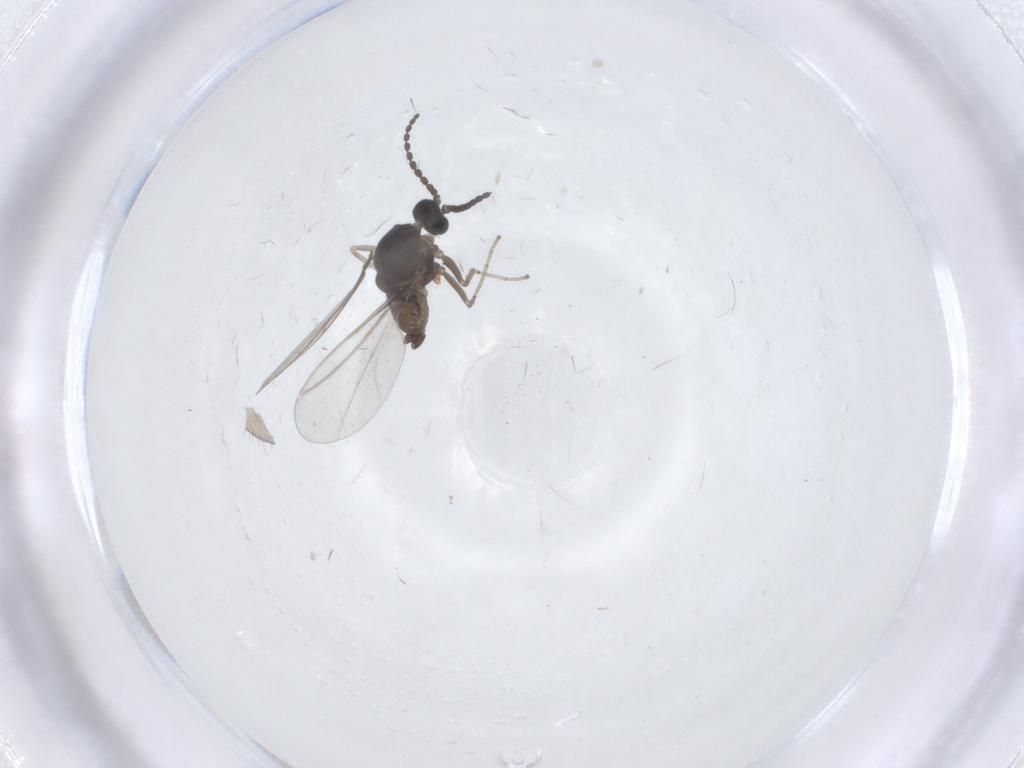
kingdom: Animalia
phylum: Arthropoda
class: Insecta
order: Diptera
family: Cecidomyiidae
